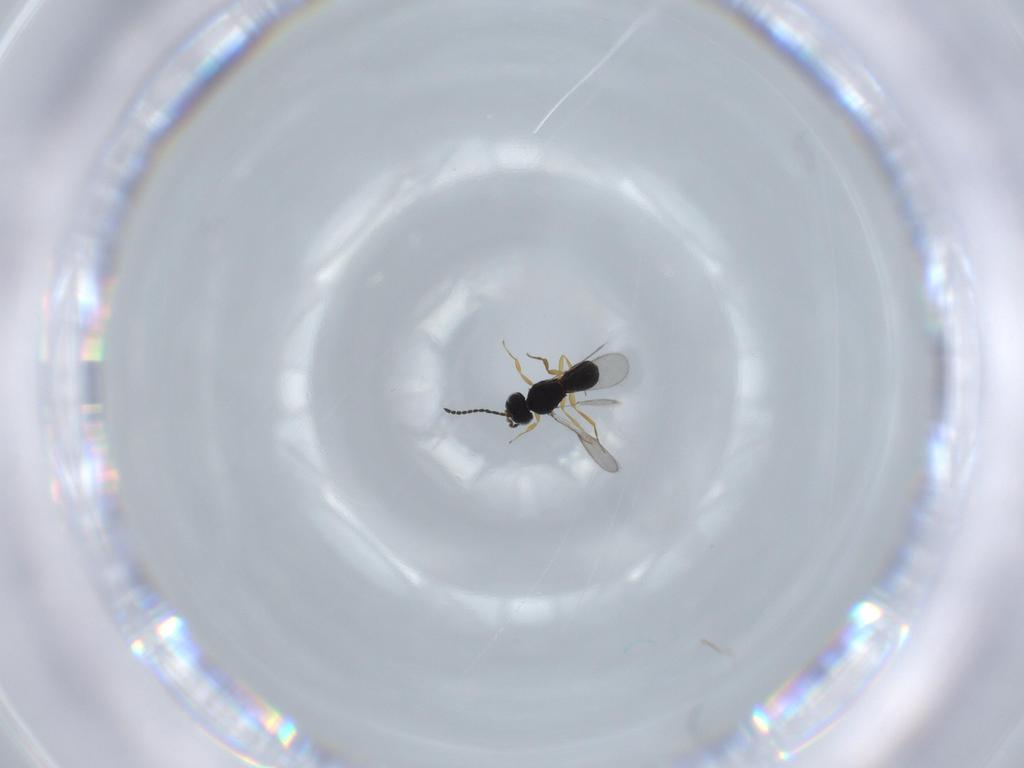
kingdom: Animalia
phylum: Arthropoda
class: Insecta
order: Hymenoptera
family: Scelionidae
